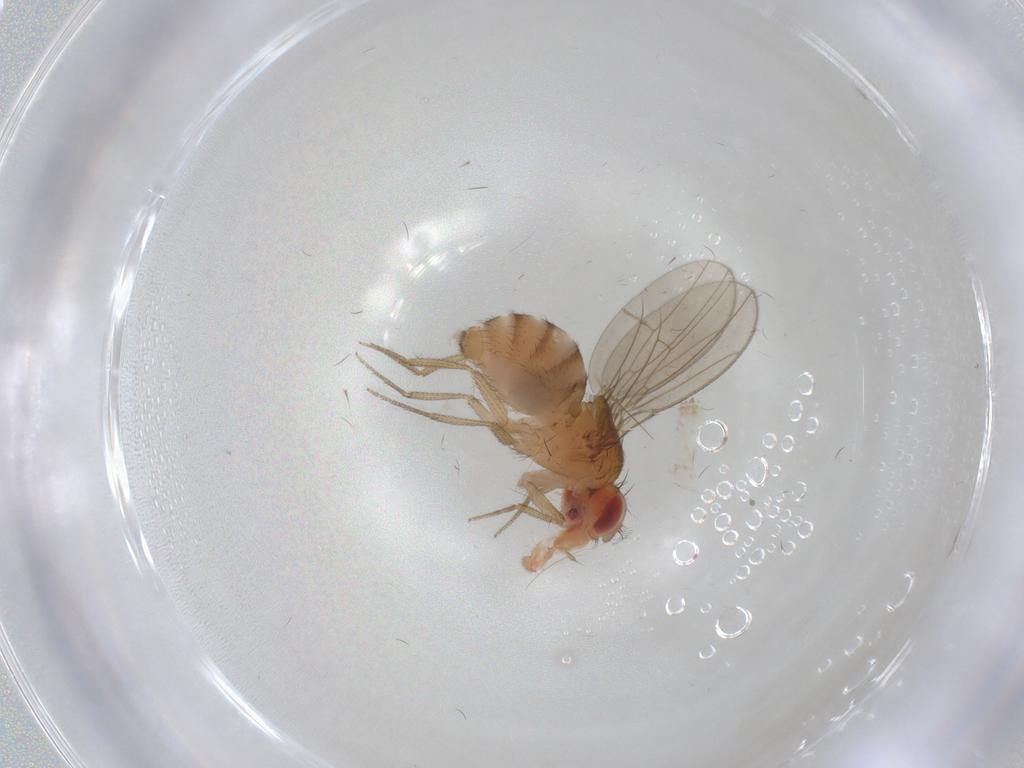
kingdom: Animalia
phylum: Arthropoda
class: Insecta
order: Diptera
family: Drosophilidae
